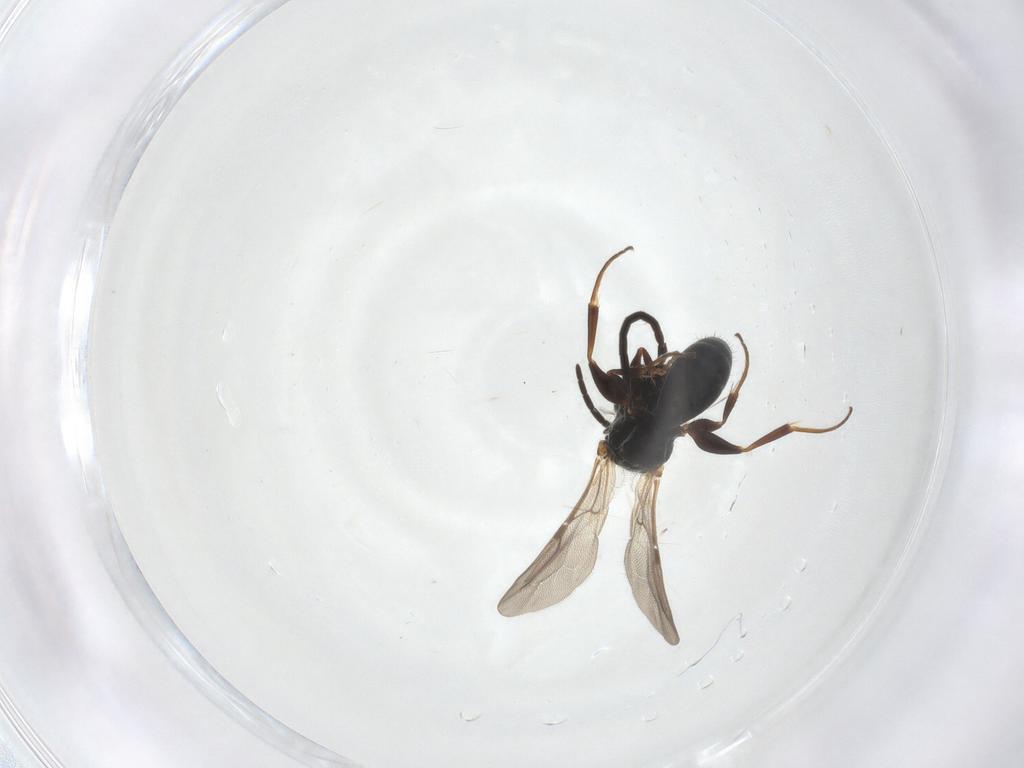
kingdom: Animalia
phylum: Arthropoda
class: Insecta
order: Hymenoptera
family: Bethylidae
